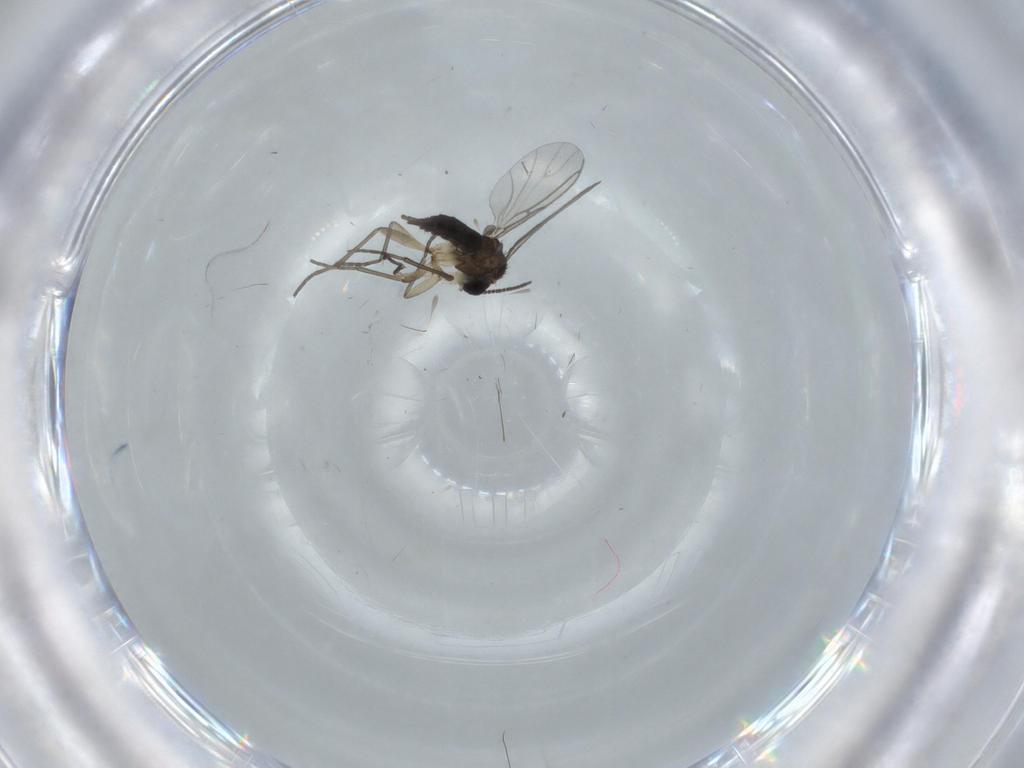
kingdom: Animalia
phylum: Arthropoda
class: Insecta
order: Diptera
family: Sciaridae
